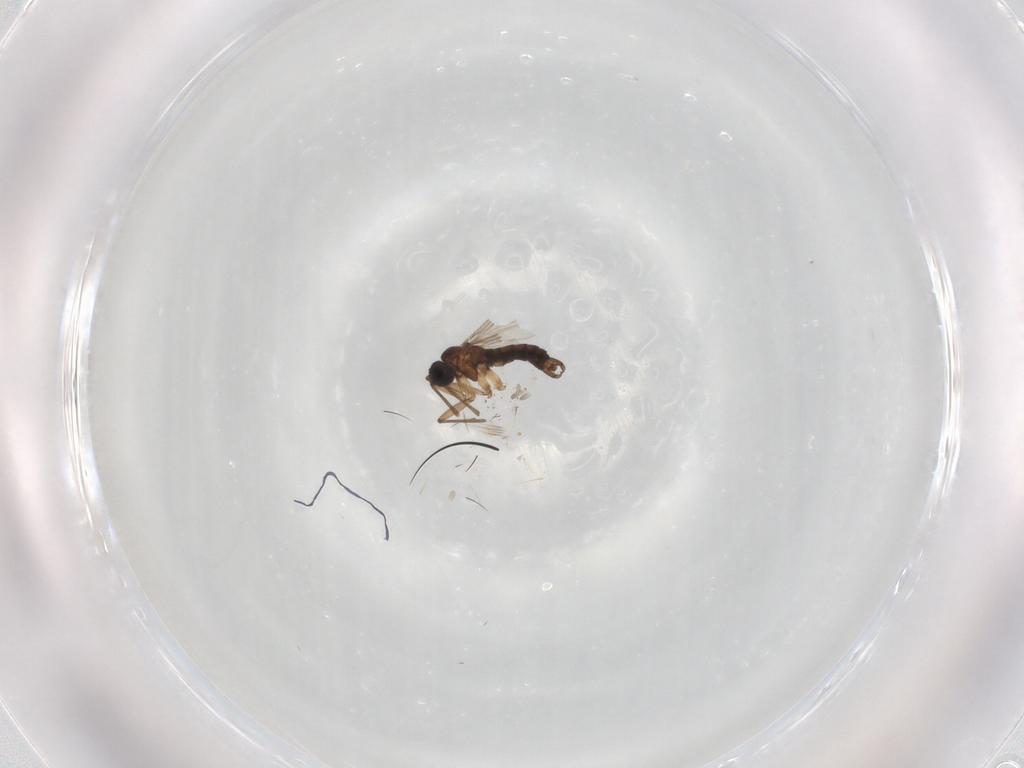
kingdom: Animalia
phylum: Arthropoda
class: Insecta
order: Diptera
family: Sciaridae
